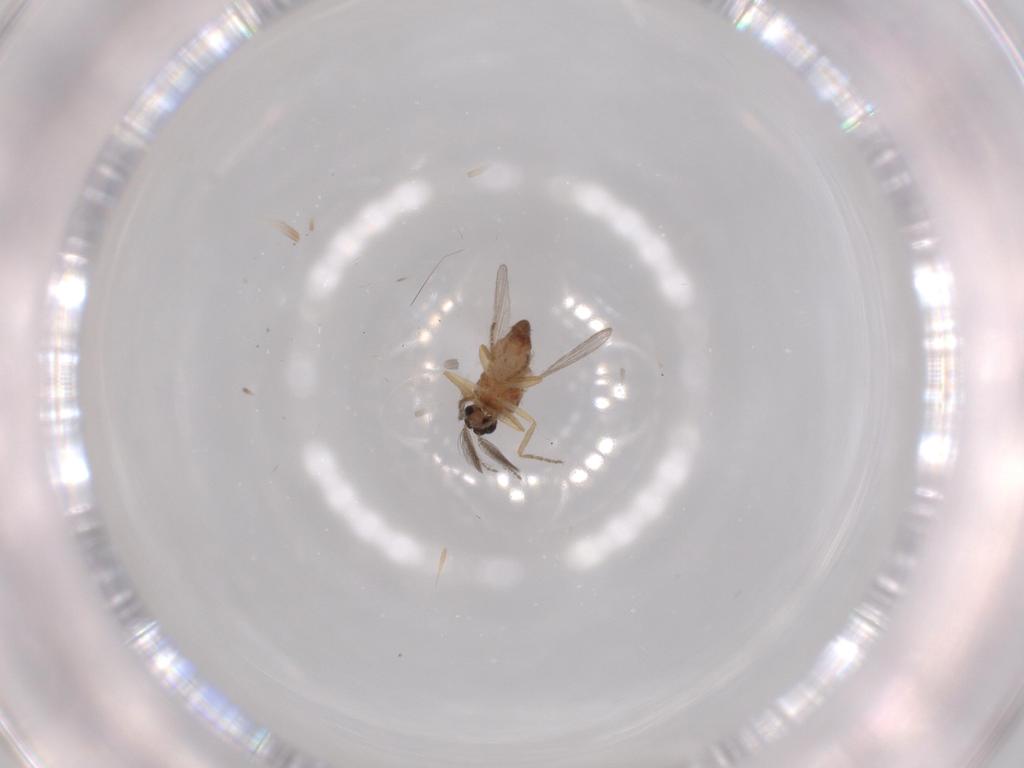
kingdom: Animalia
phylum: Arthropoda
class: Insecta
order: Diptera
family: Ceratopogonidae
